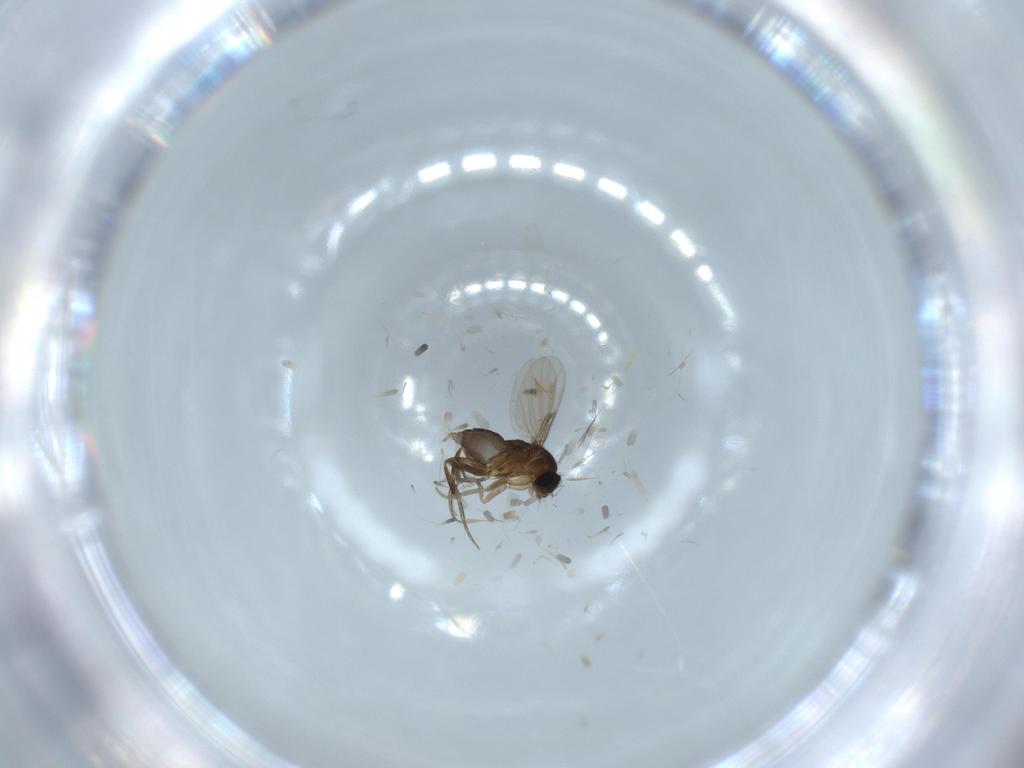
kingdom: Animalia
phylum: Arthropoda
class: Insecta
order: Diptera
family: Phoridae
